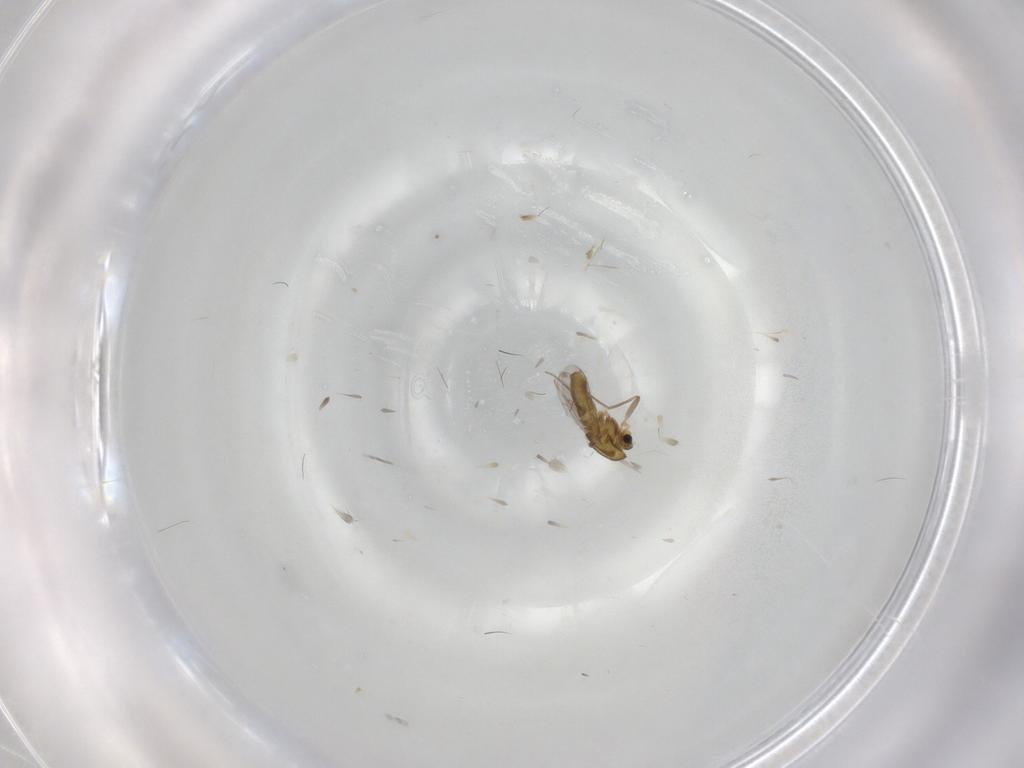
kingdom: Animalia
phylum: Arthropoda
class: Insecta
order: Diptera
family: Chironomidae
